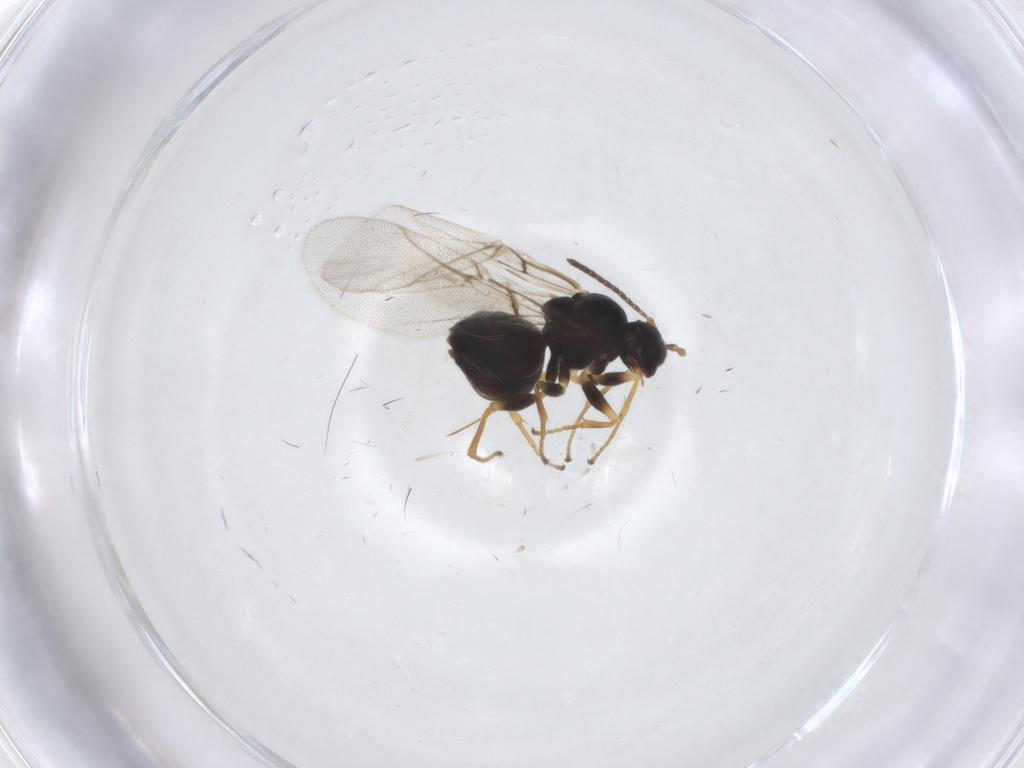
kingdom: Animalia
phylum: Arthropoda
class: Insecta
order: Hymenoptera
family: Cynipidae
